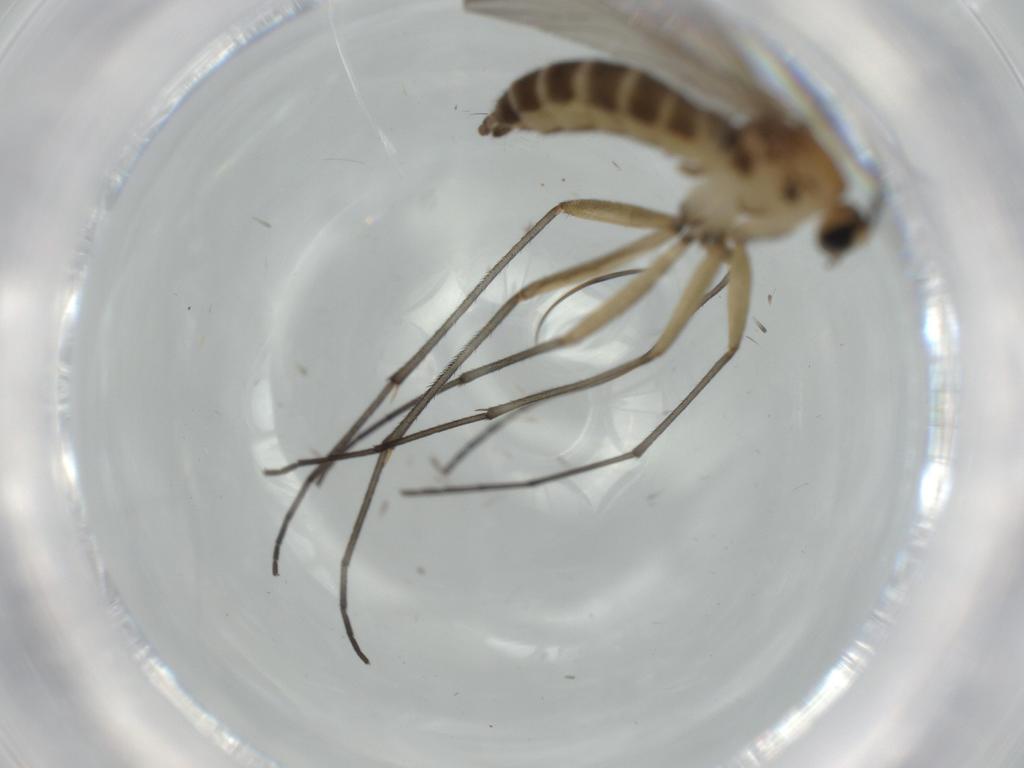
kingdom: Animalia
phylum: Arthropoda
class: Insecta
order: Diptera
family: Sciaridae
